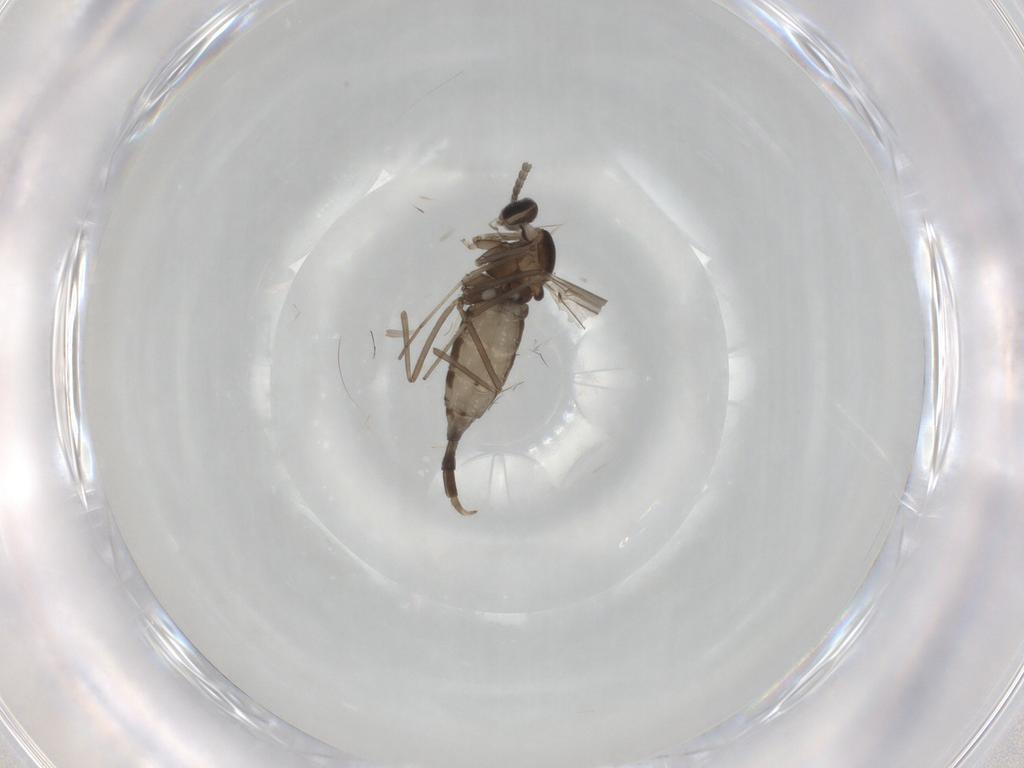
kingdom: Animalia
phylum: Arthropoda
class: Insecta
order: Diptera
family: Cecidomyiidae
